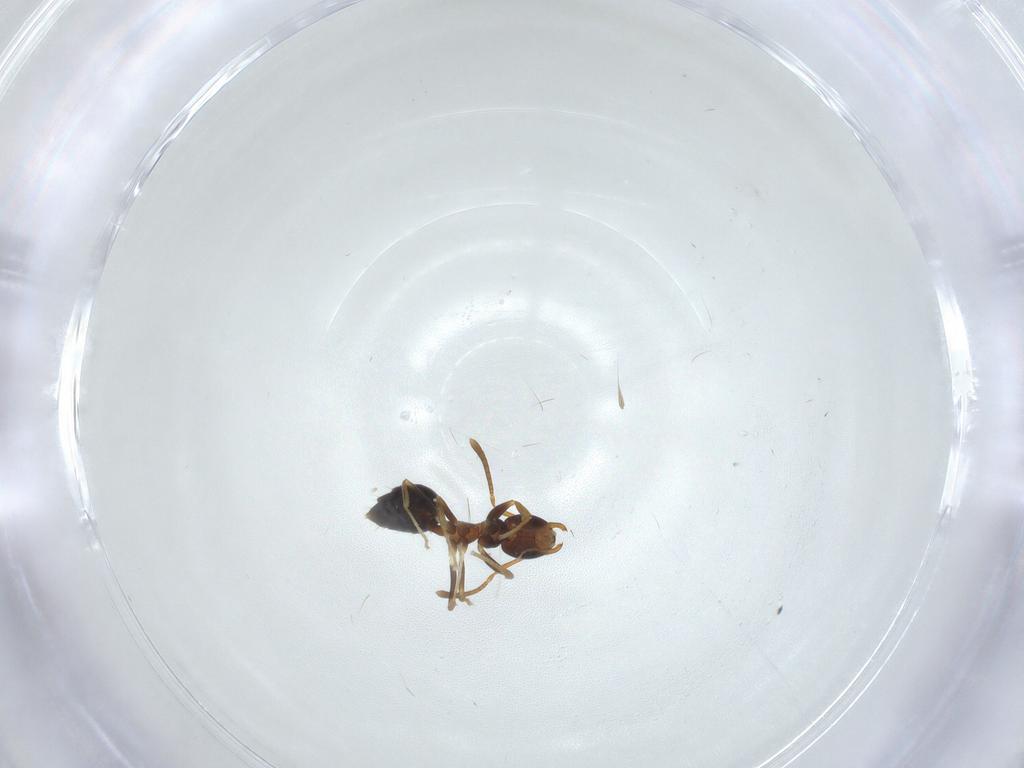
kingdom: Animalia
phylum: Arthropoda
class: Insecta
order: Hymenoptera
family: Formicidae
